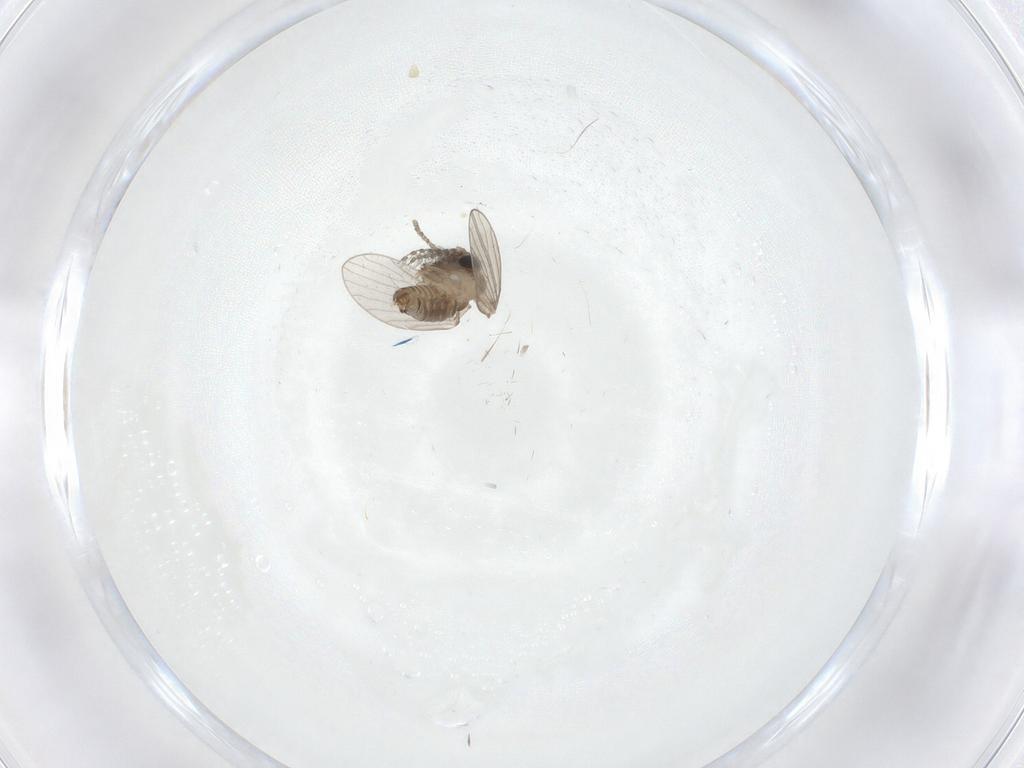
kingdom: Animalia
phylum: Arthropoda
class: Insecta
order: Diptera
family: Psychodidae
